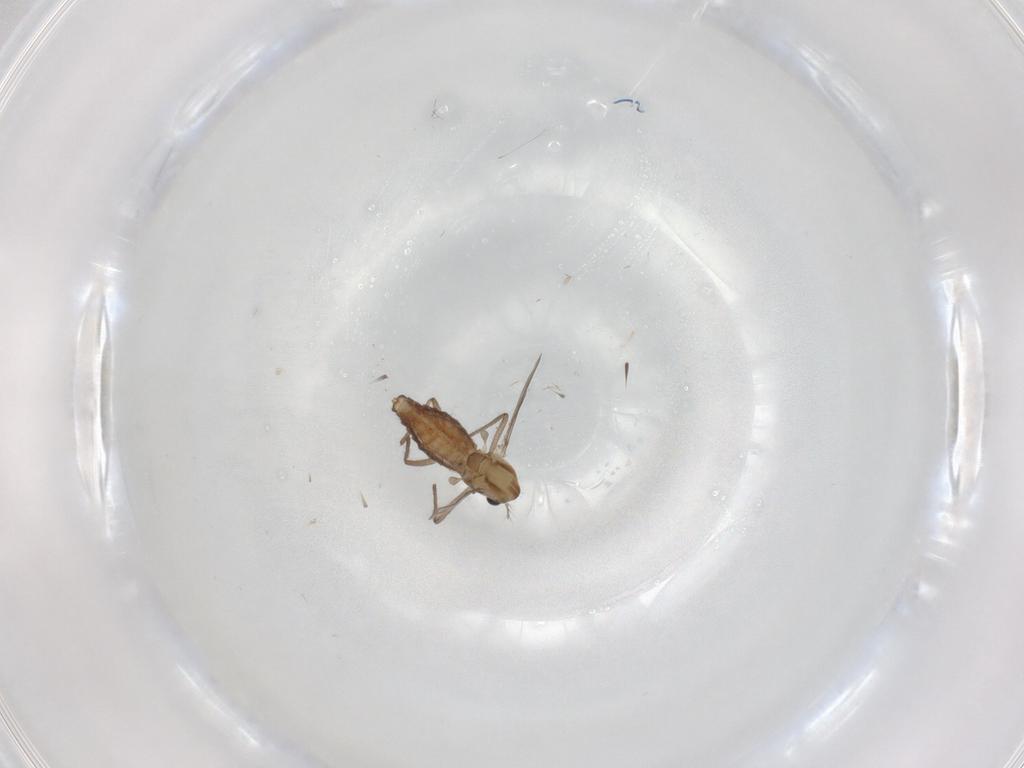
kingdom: Animalia
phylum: Arthropoda
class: Insecta
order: Diptera
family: Chironomidae
